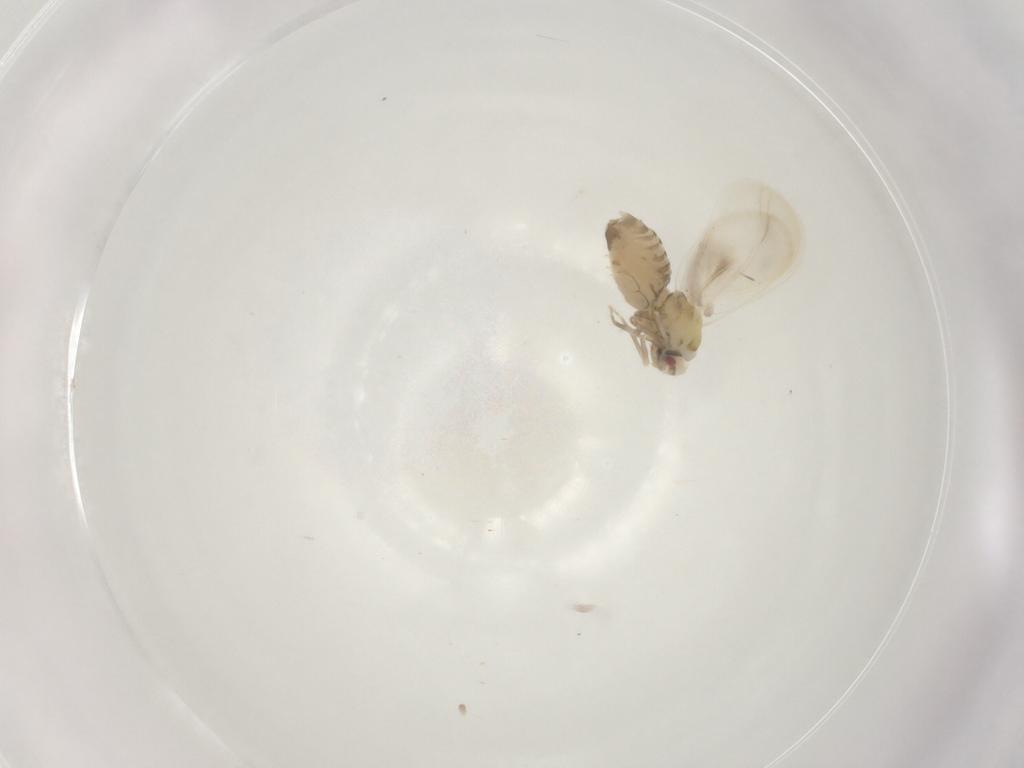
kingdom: Animalia
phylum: Arthropoda
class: Insecta
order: Hemiptera
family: Aleyrodidae
